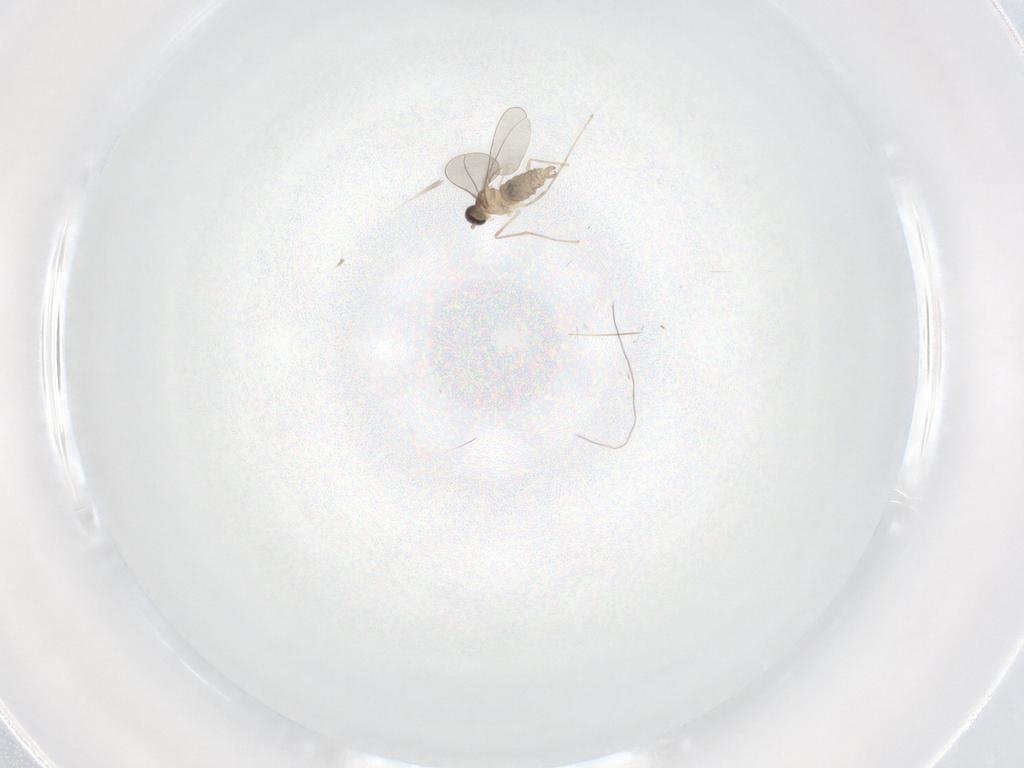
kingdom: Animalia
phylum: Arthropoda
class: Insecta
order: Diptera
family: Cecidomyiidae
